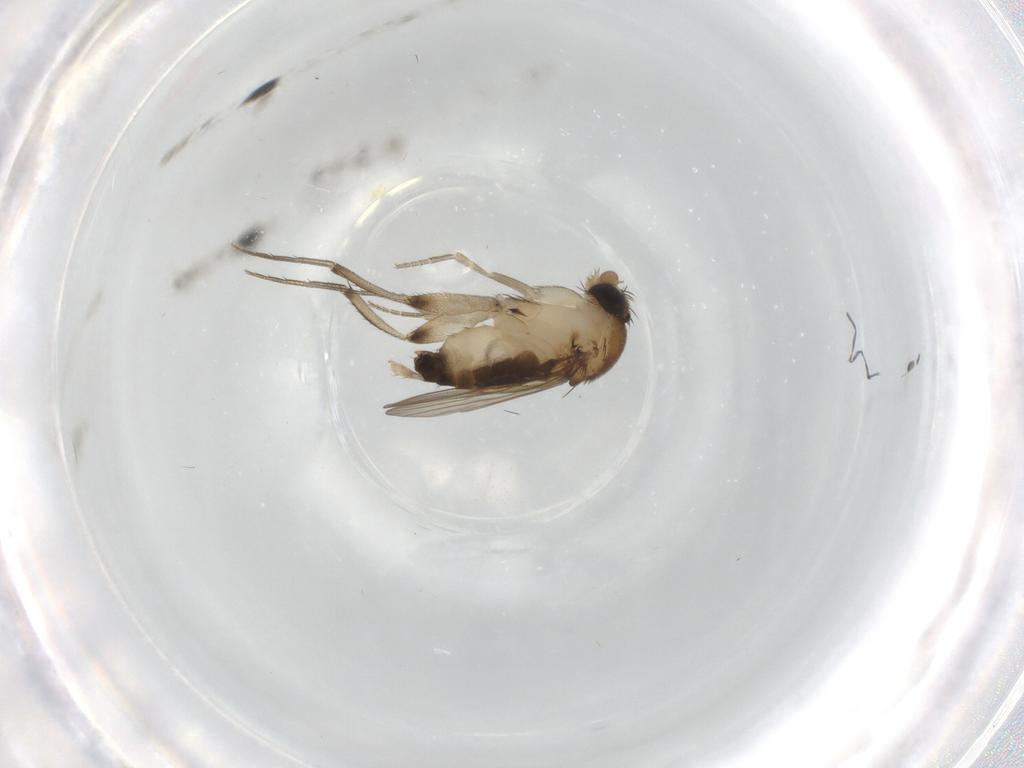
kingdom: Animalia
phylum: Arthropoda
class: Insecta
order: Diptera
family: Phoridae
